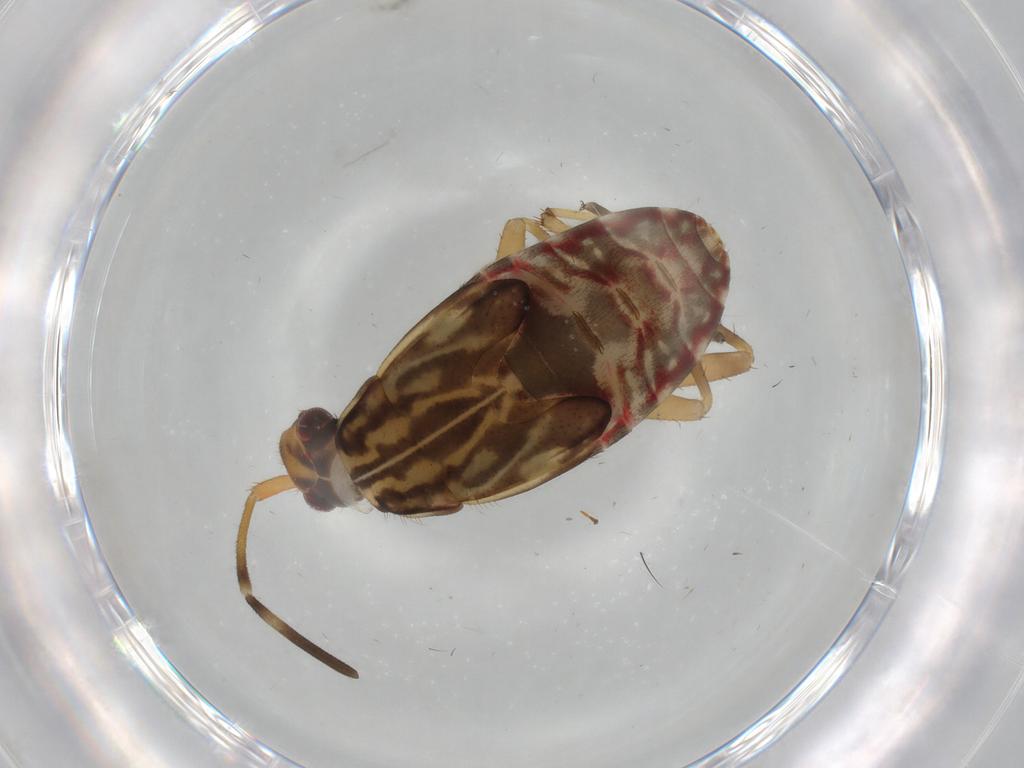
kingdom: Animalia
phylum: Arthropoda
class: Insecta
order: Hemiptera
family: Rhyparochromidae
